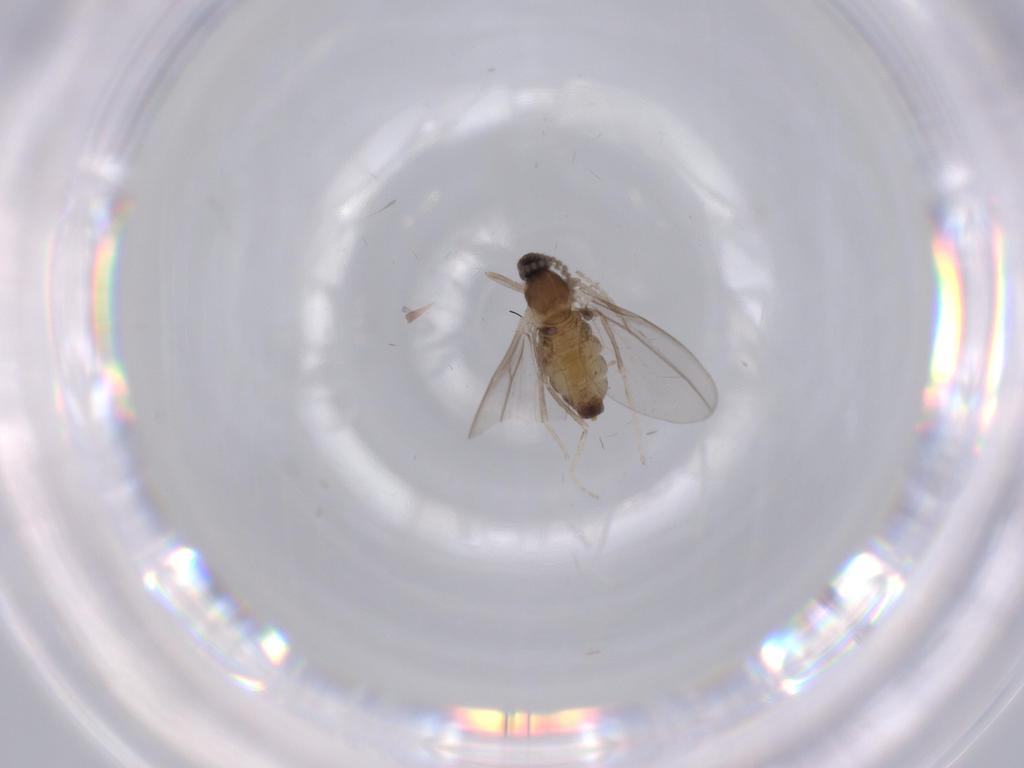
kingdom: Animalia
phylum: Arthropoda
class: Insecta
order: Diptera
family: Cecidomyiidae
